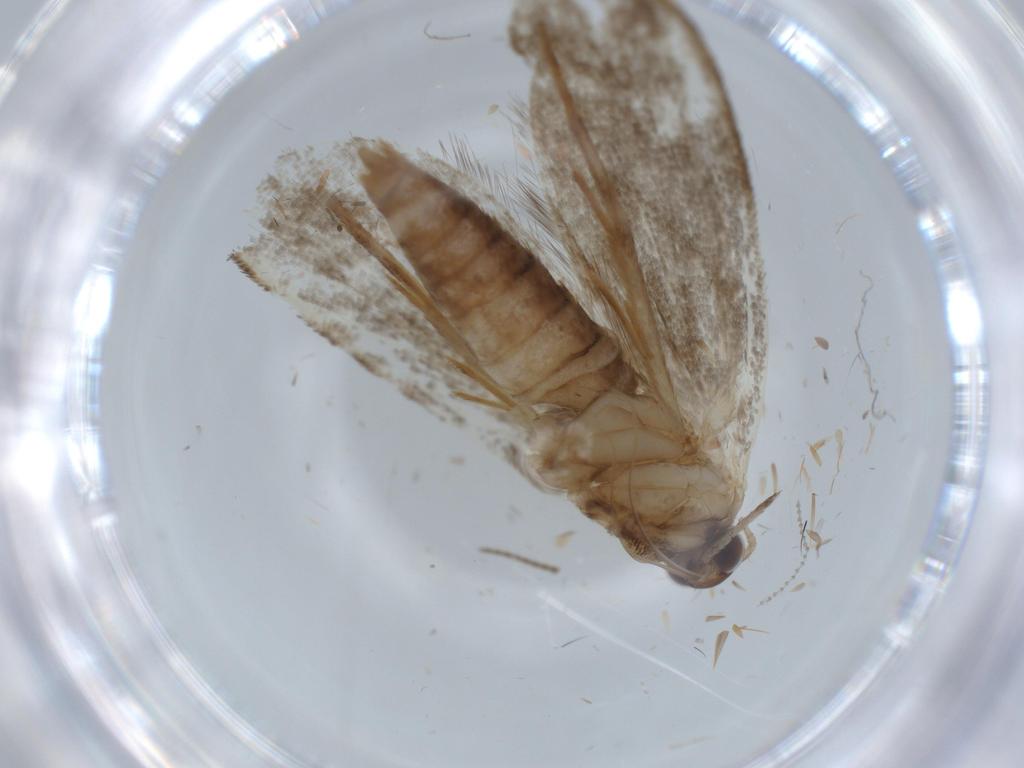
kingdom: Animalia
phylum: Arthropoda
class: Insecta
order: Lepidoptera
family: Glyphipterigidae
